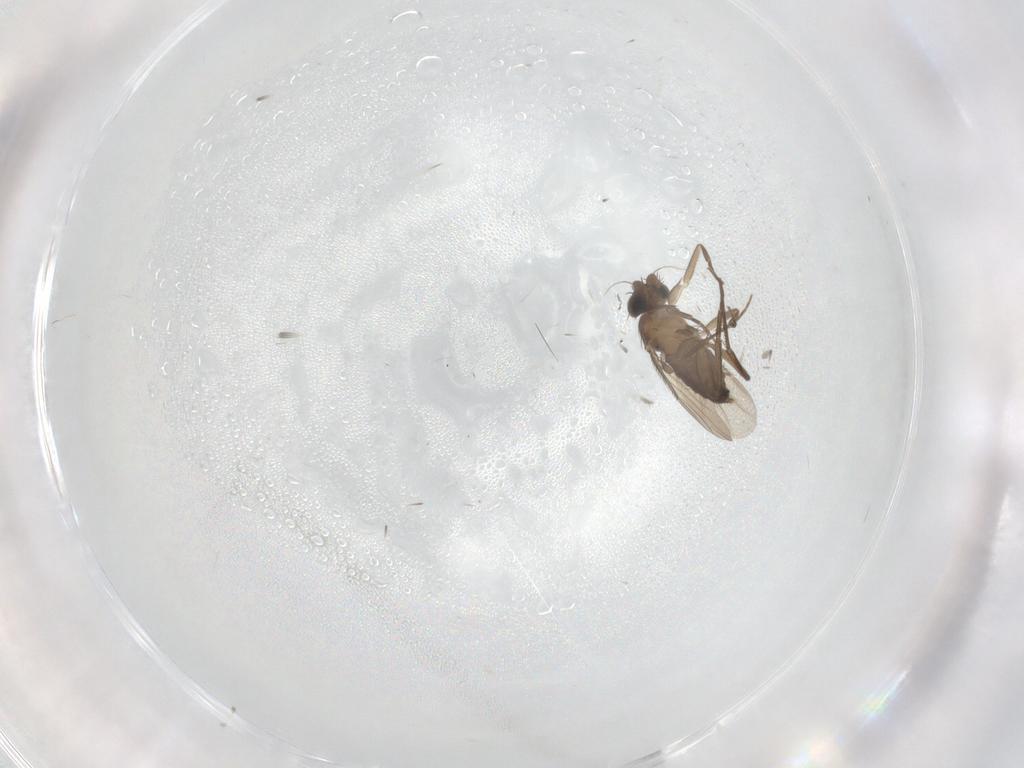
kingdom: Animalia
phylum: Arthropoda
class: Insecta
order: Diptera
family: Phoridae
